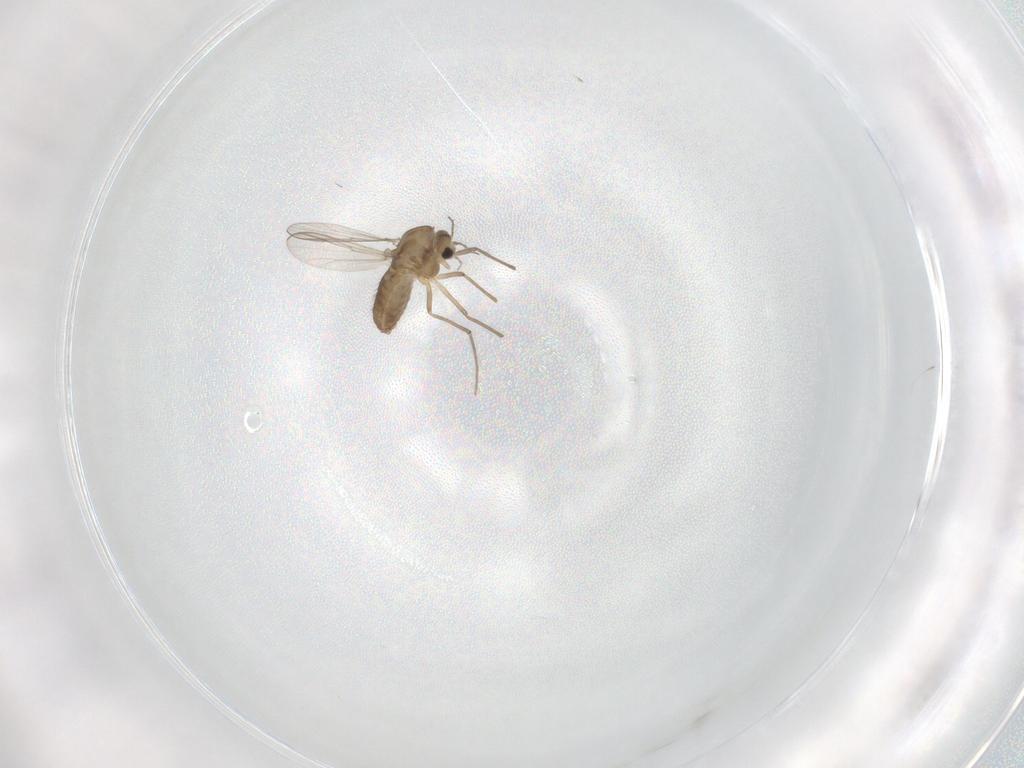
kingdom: Animalia
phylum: Arthropoda
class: Insecta
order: Diptera
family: Chironomidae
